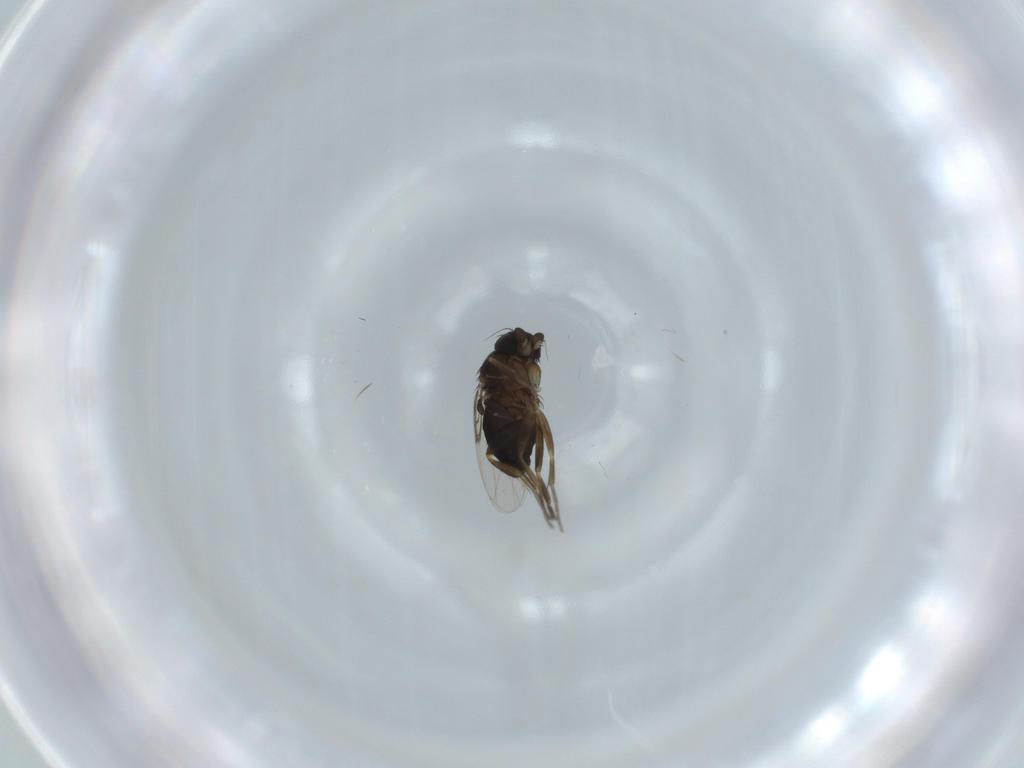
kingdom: Animalia
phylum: Arthropoda
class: Insecta
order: Diptera
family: Phoridae
